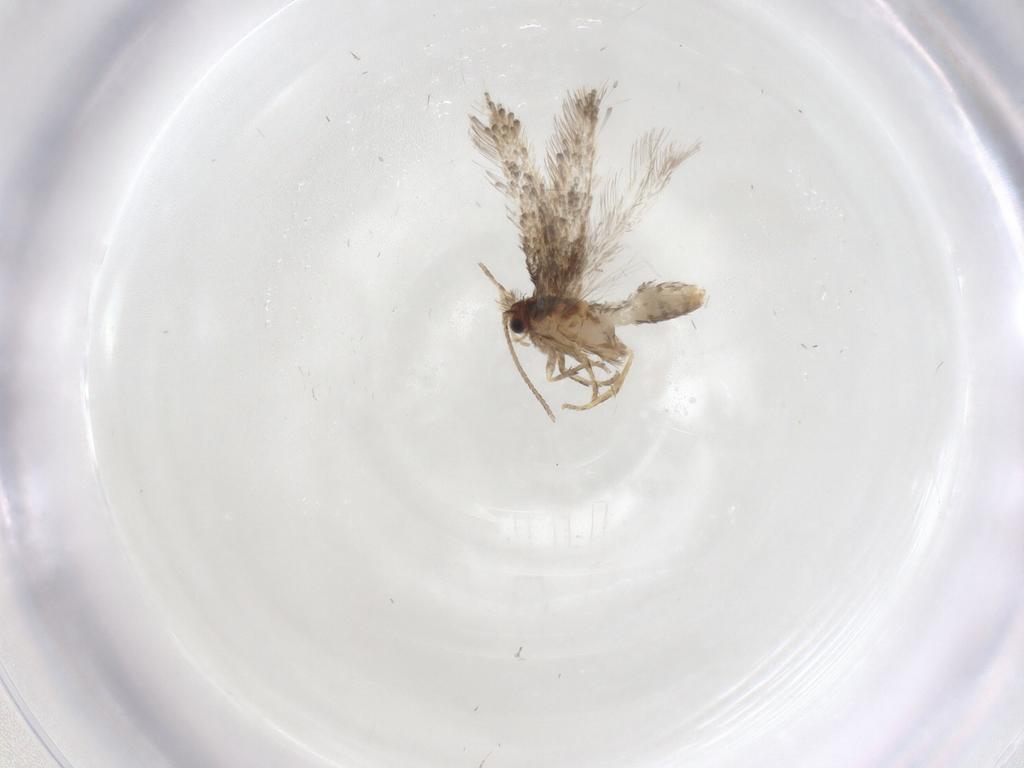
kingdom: Animalia
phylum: Arthropoda
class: Insecta
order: Lepidoptera
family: Nepticulidae
